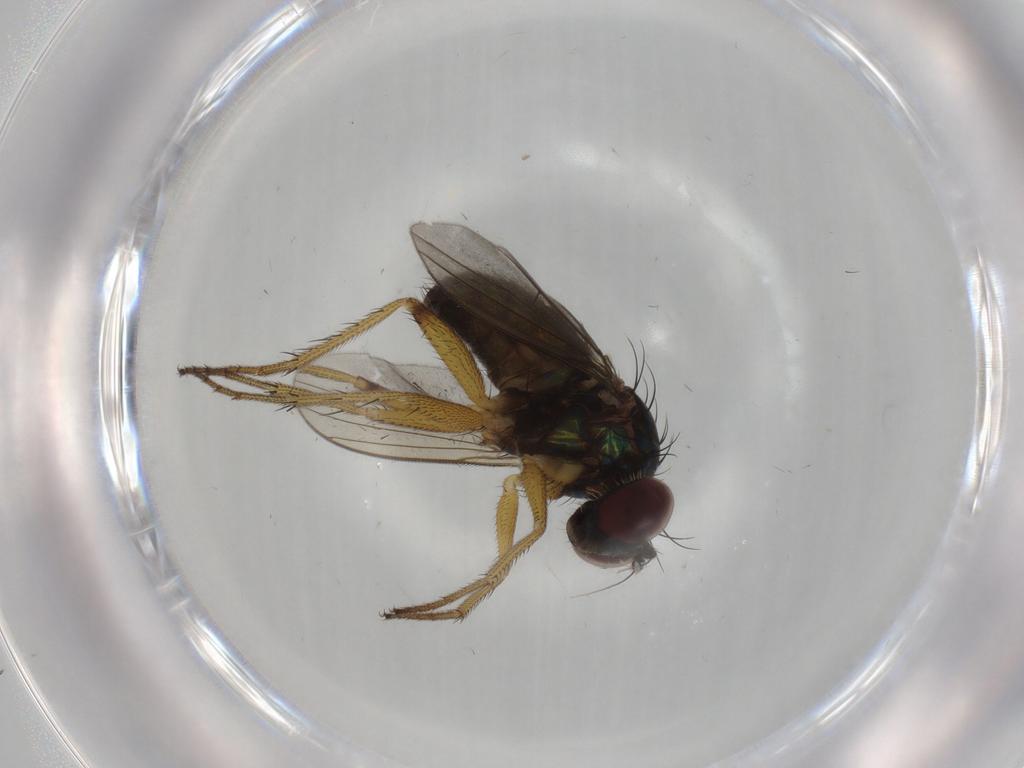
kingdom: Animalia
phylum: Arthropoda
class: Insecta
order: Diptera
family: Dolichopodidae
